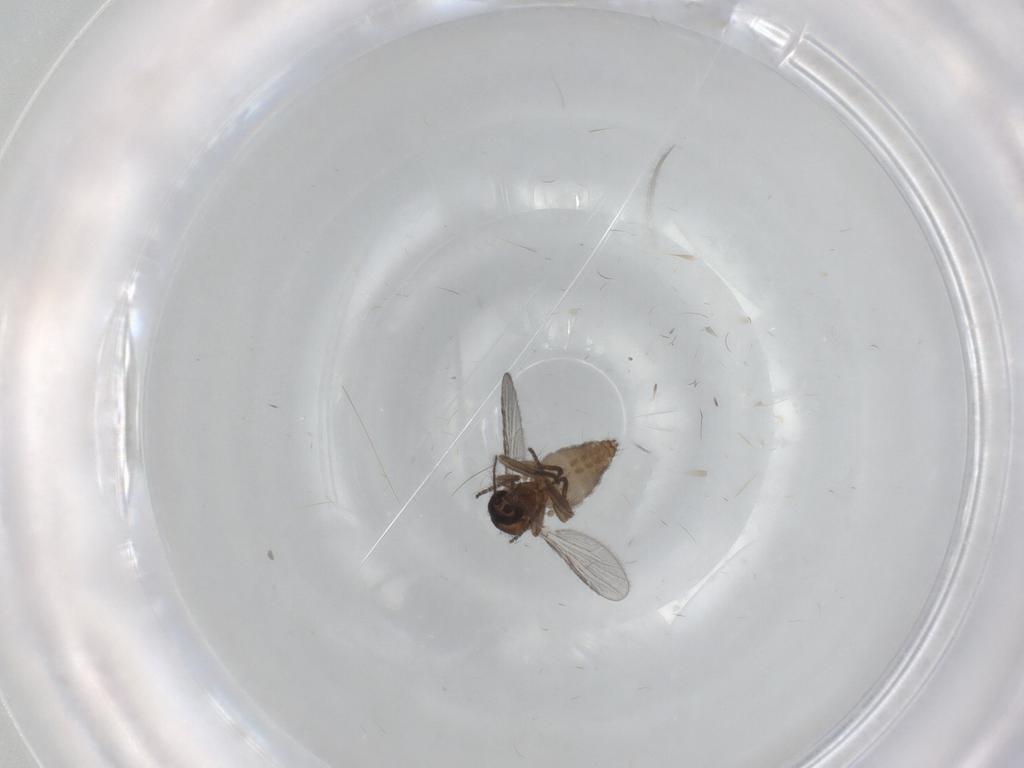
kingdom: Animalia
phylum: Arthropoda
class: Insecta
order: Diptera
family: Ceratopogonidae
